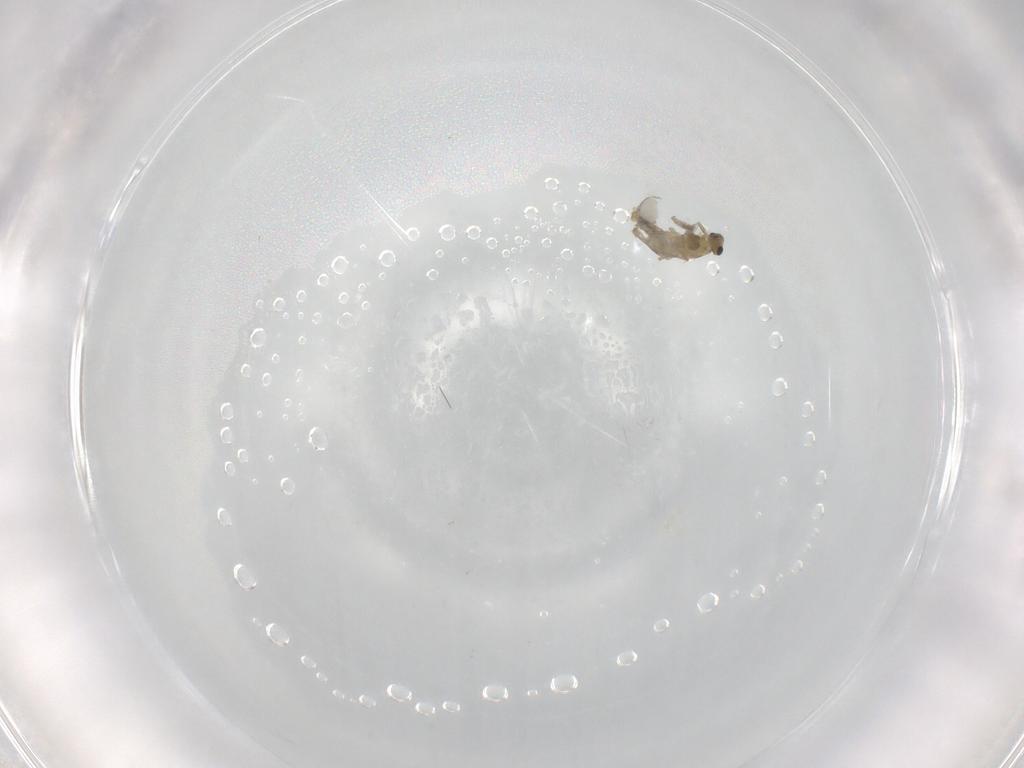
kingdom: Animalia
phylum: Arthropoda
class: Insecta
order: Diptera
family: Cecidomyiidae
